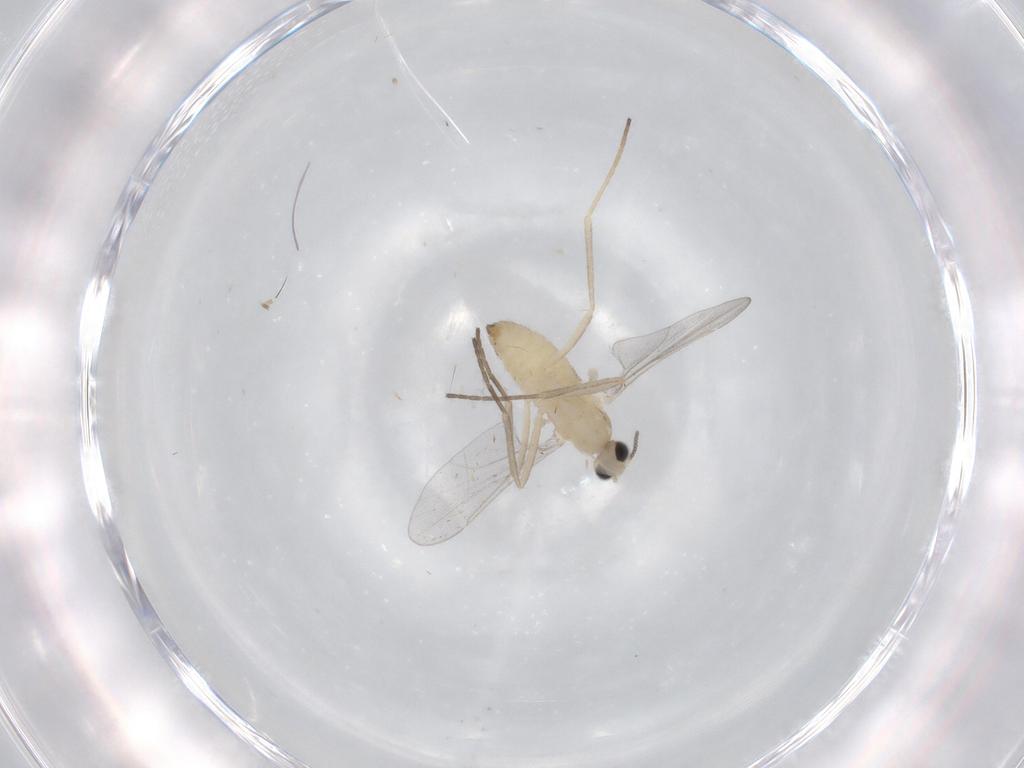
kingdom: Animalia
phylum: Arthropoda
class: Insecta
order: Diptera
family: Cecidomyiidae
